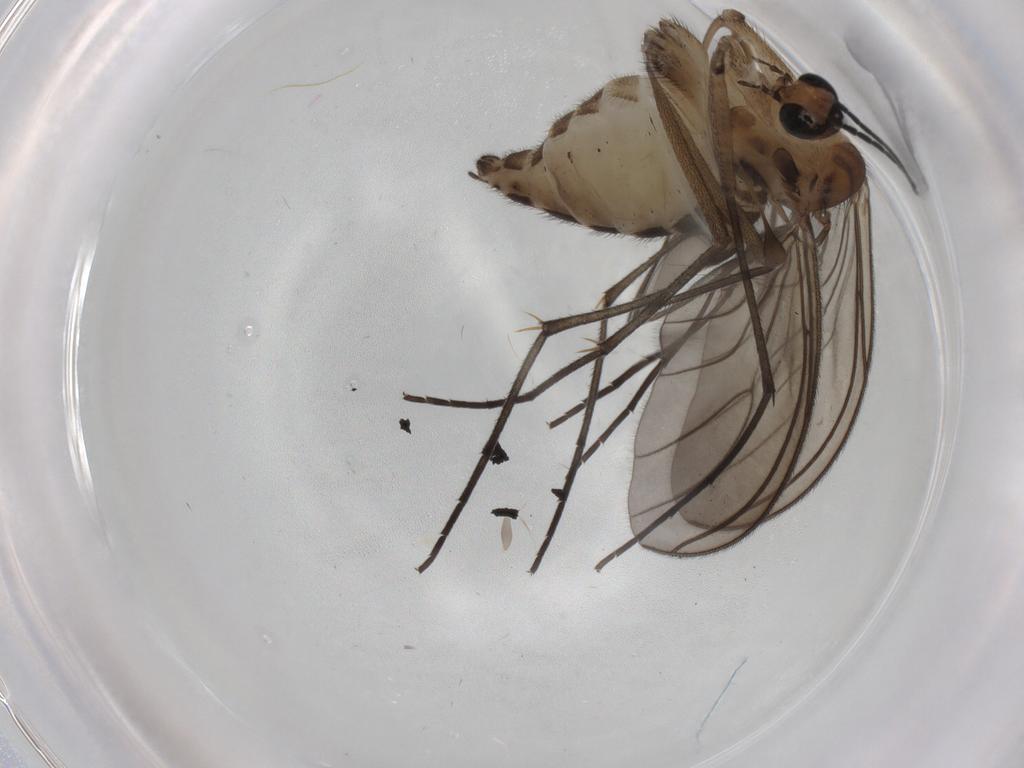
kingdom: Animalia
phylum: Arthropoda
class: Insecta
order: Diptera
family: Sciaridae
